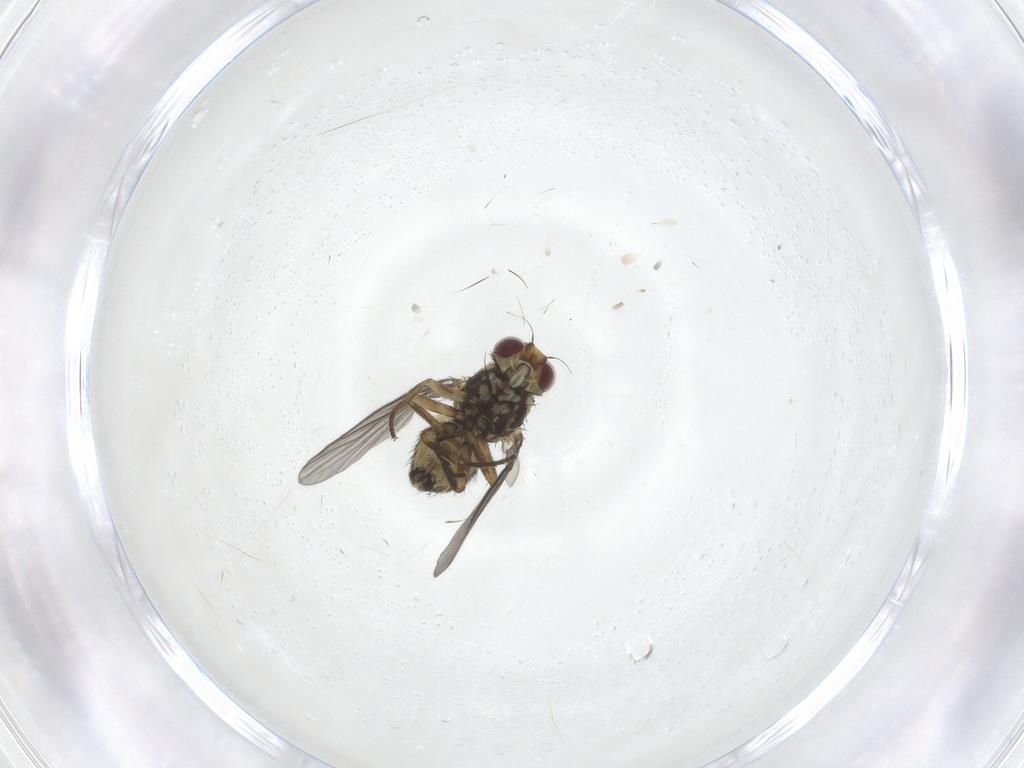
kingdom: Animalia
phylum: Arthropoda
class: Insecta
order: Diptera
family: Agromyzidae
